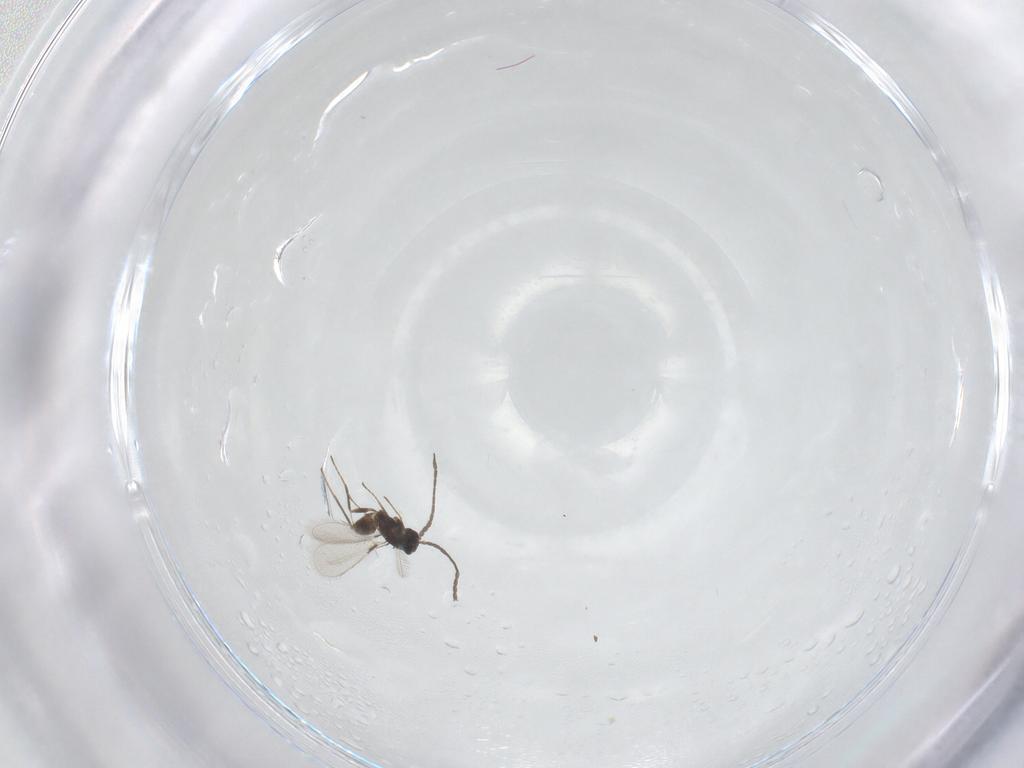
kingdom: Animalia
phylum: Arthropoda
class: Insecta
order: Hymenoptera
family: Mymaridae
